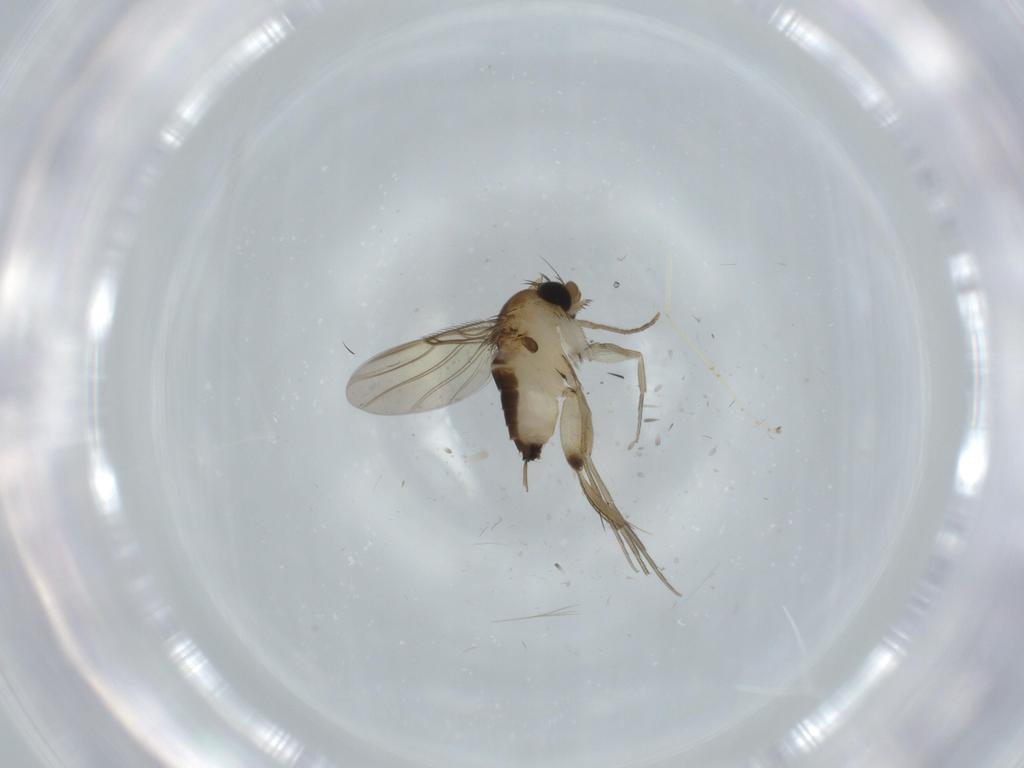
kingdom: Animalia
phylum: Arthropoda
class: Insecta
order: Diptera
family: Phoridae
